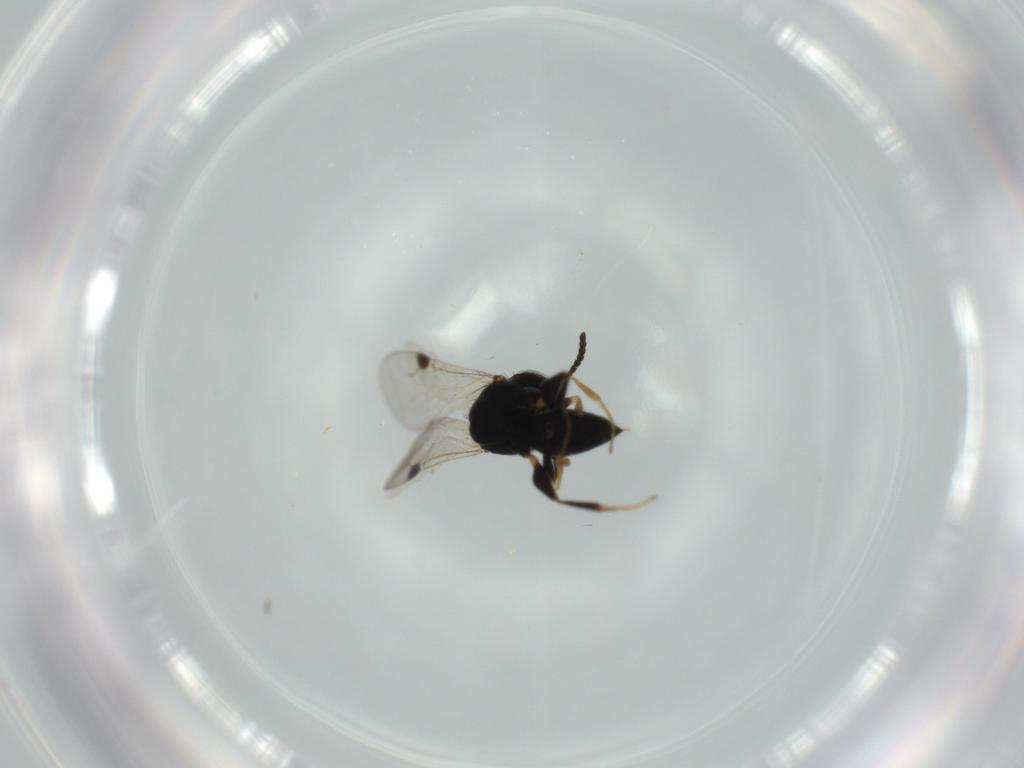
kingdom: Animalia
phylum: Arthropoda
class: Insecta
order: Hymenoptera
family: Dryinidae
